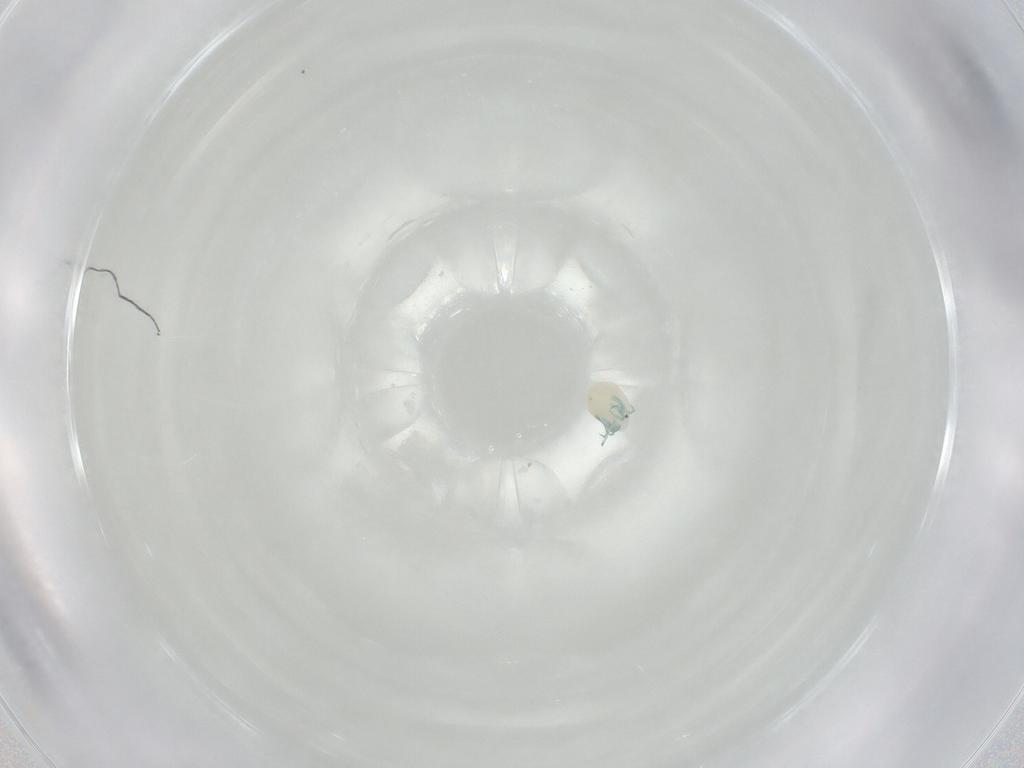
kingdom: Animalia
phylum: Arthropoda
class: Arachnida
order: Trombidiformes
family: Arrenuridae
